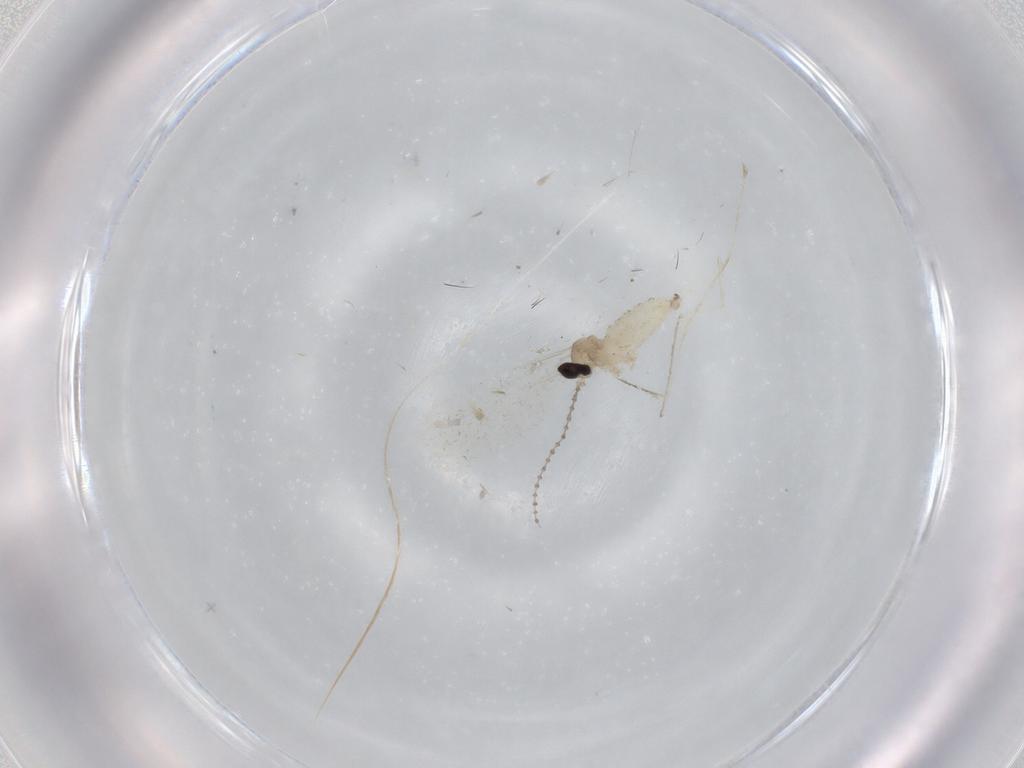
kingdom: Animalia
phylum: Arthropoda
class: Insecta
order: Diptera
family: Cecidomyiidae
